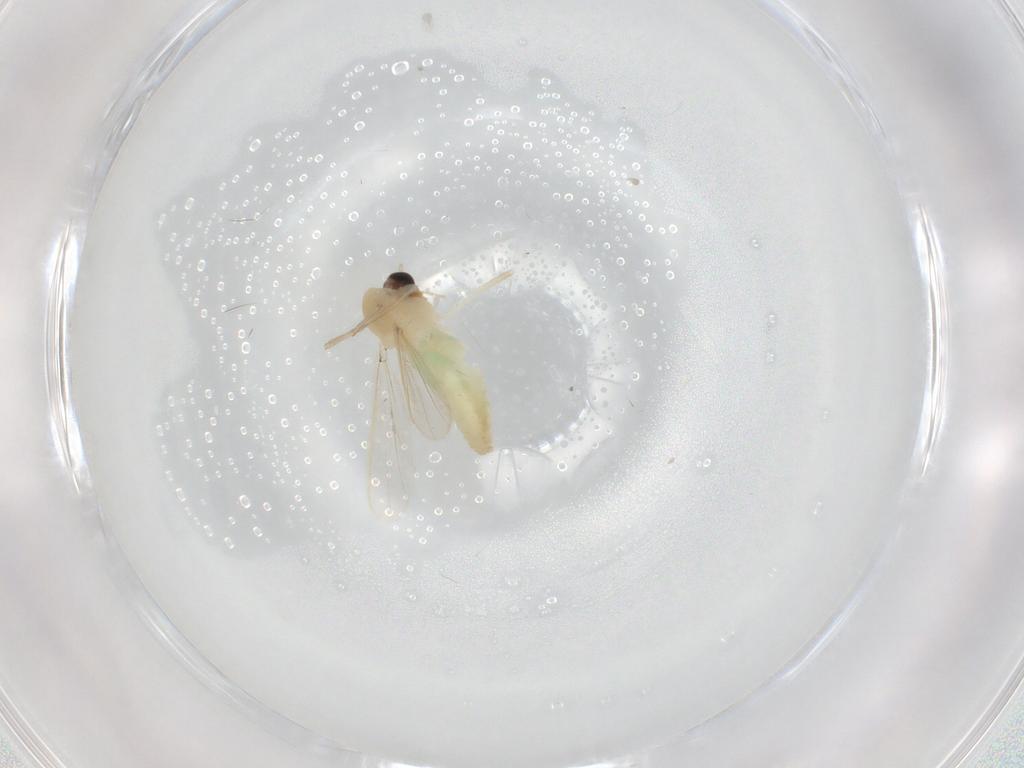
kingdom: Animalia
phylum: Arthropoda
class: Insecta
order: Diptera
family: Chironomidae
